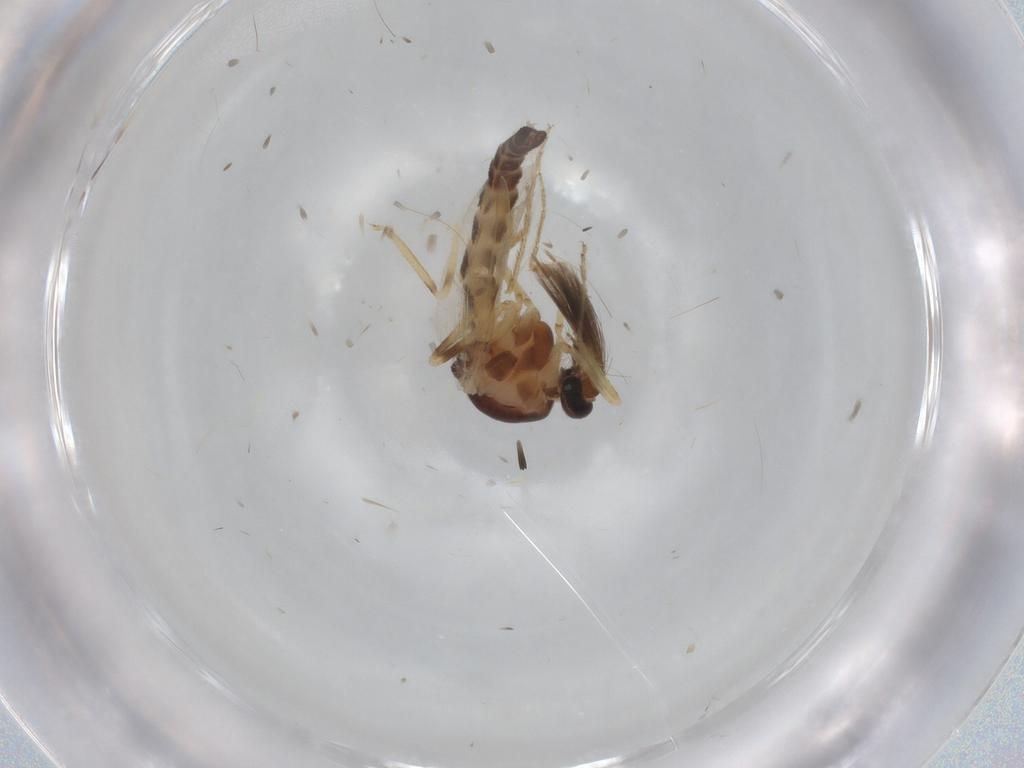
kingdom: Animalia
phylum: Arthropoda
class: Insecta
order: Diptera
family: Ceratopogonidae
